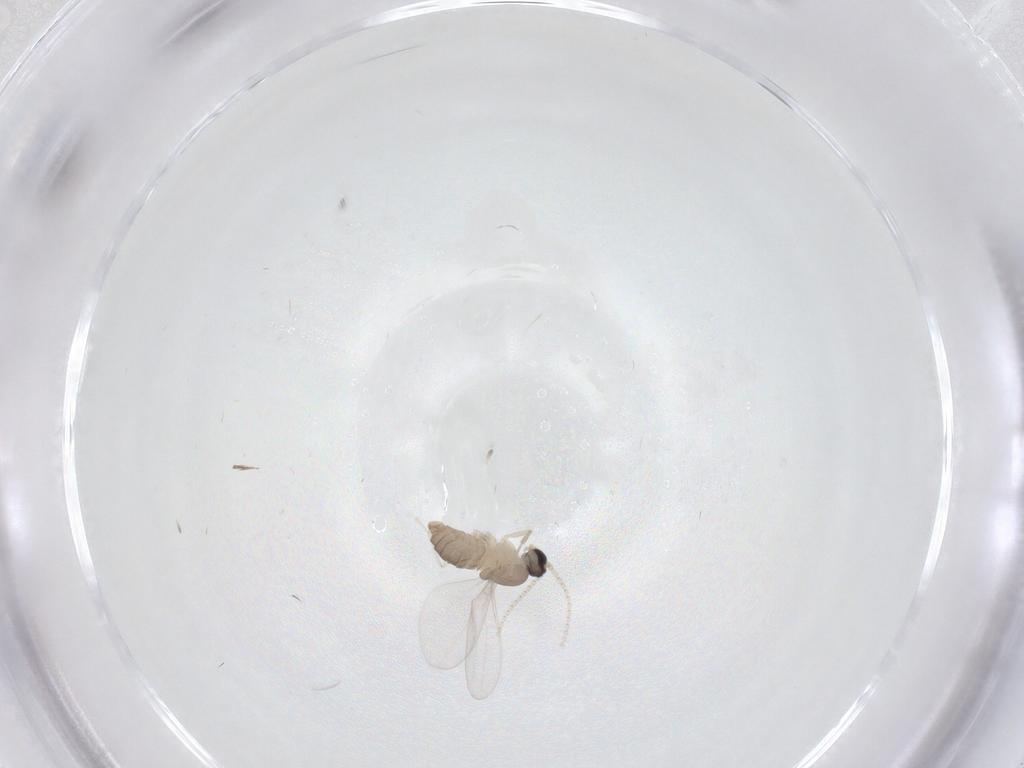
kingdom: Animalia
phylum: Arthropoda
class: Insecta
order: Diptera
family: Cecidomyiidae
